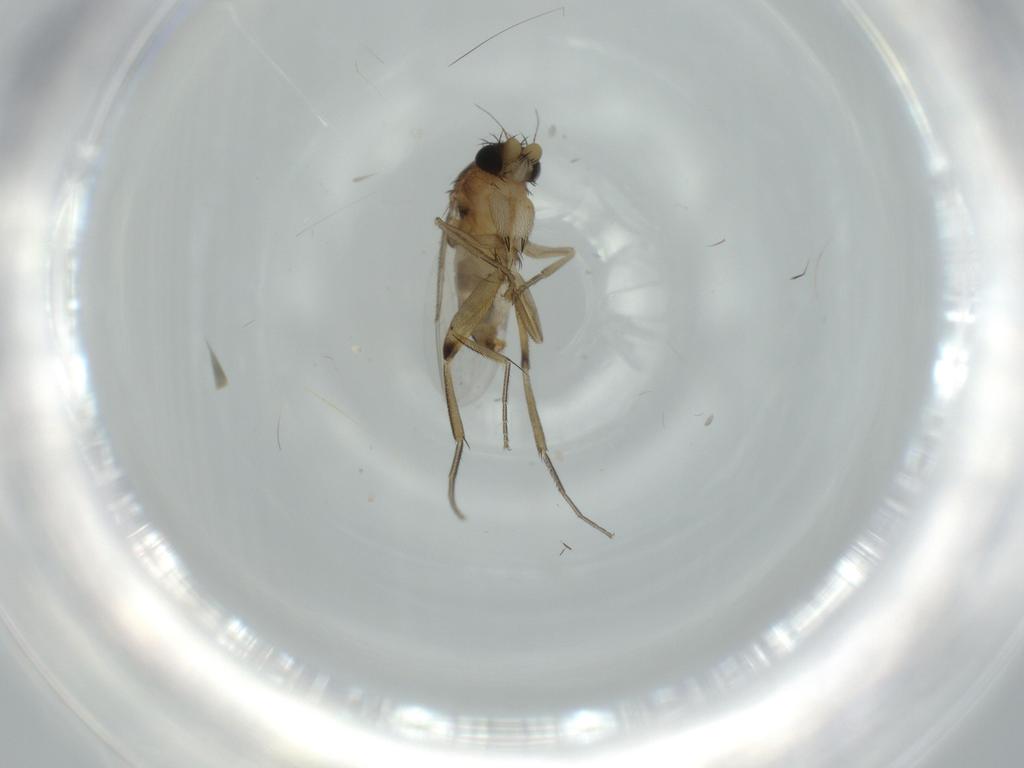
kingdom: Animalia
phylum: Arthropoda
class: Insecta
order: Diptera
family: Phoridae
